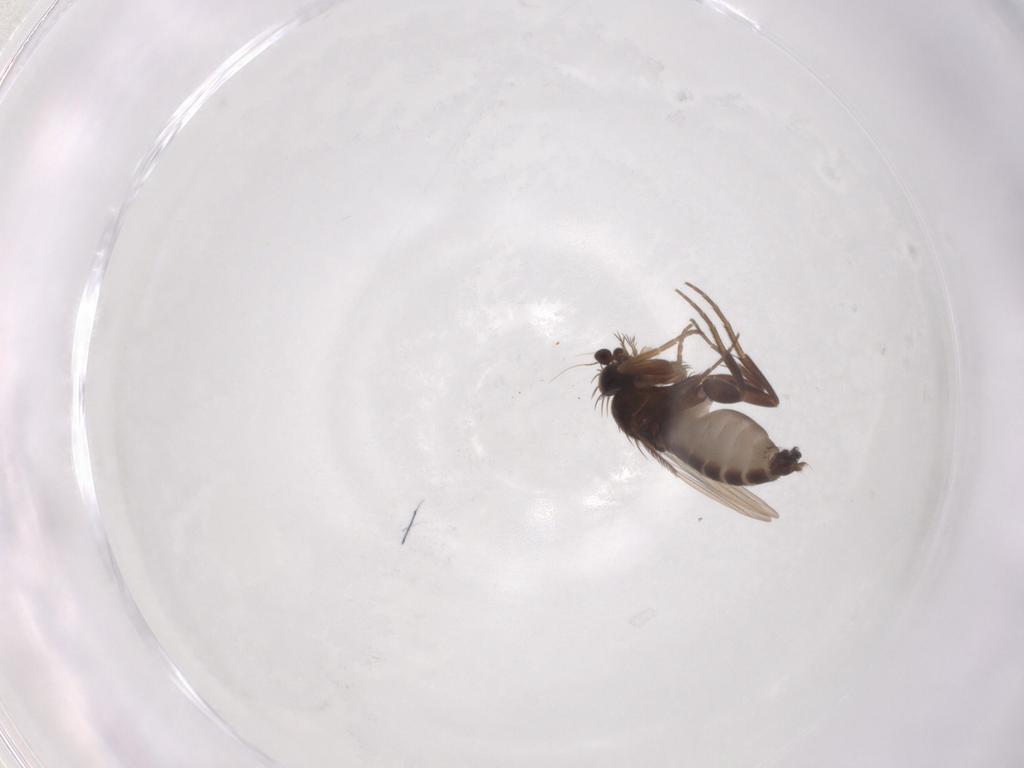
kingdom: Animalia
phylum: Arthropoda
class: Insecta
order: Diptera
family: Phoridae
